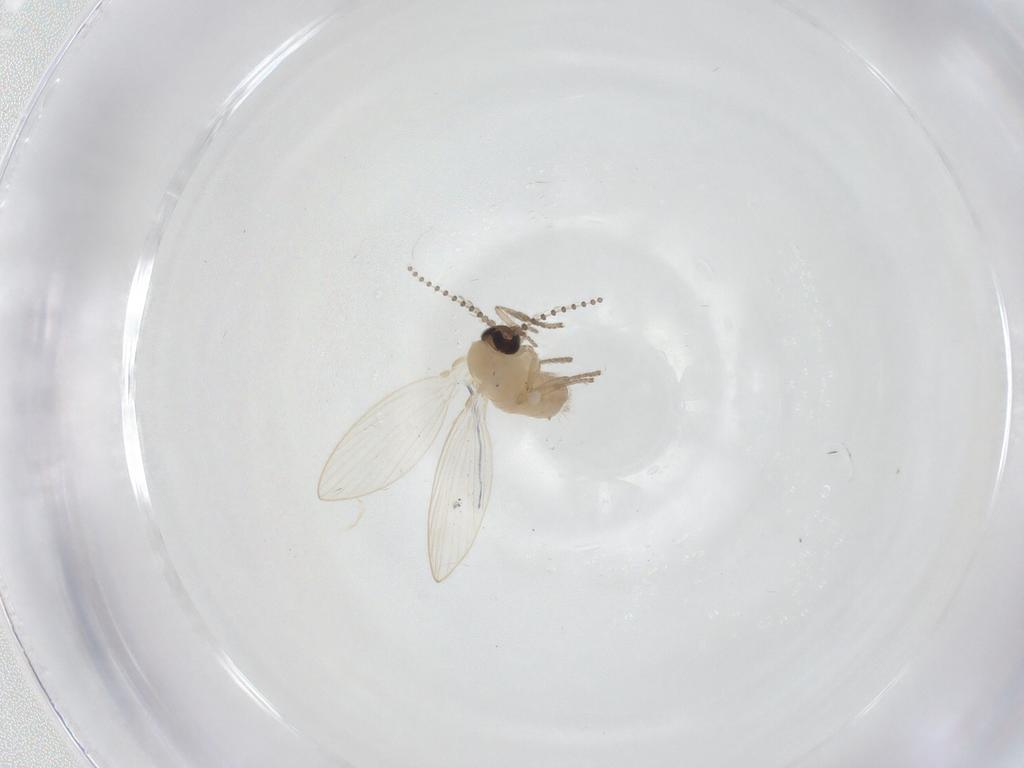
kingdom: Animalia
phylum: Arthropoda
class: Insecta
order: Diptera
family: Psychodidae
